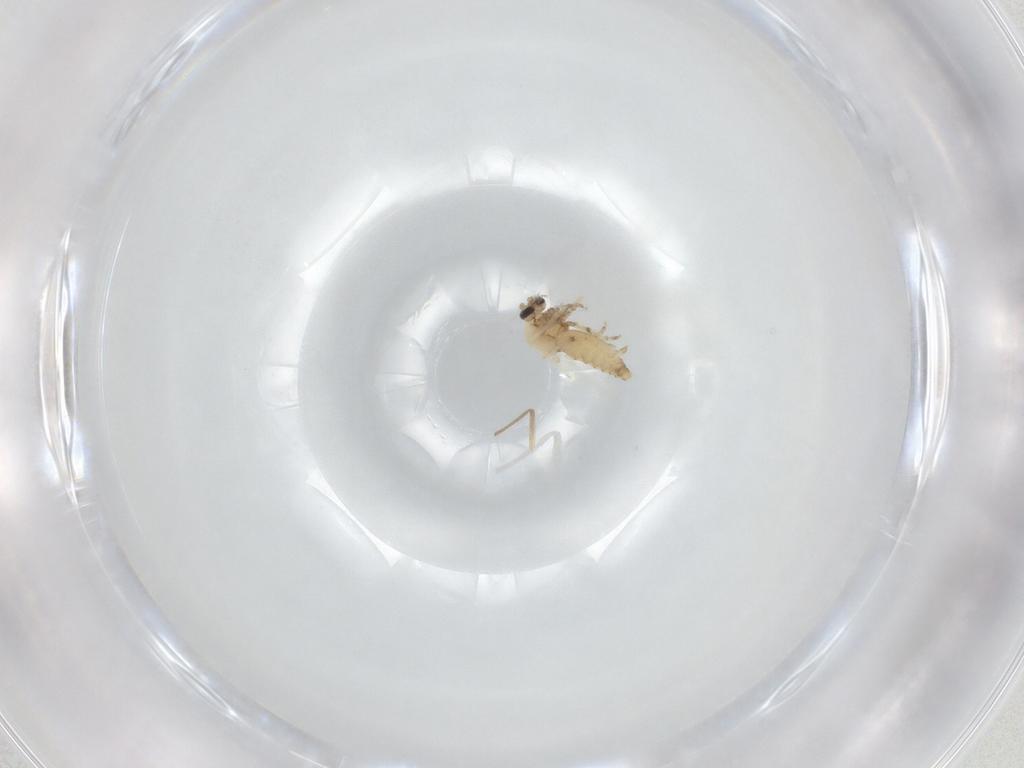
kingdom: Animalia
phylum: Arthropoda
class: Insecta
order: Diptera
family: Ceratopogonidae
